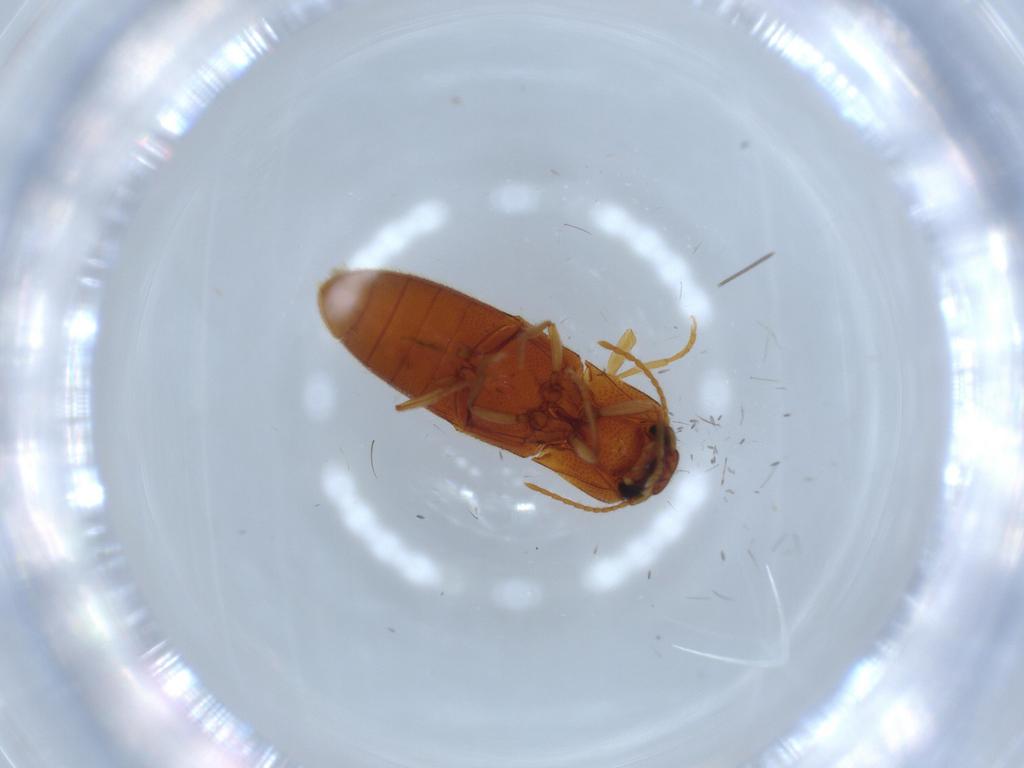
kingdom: Animalia
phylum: Arthropoda
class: Insecta
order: Coleoptera
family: Elateridae
